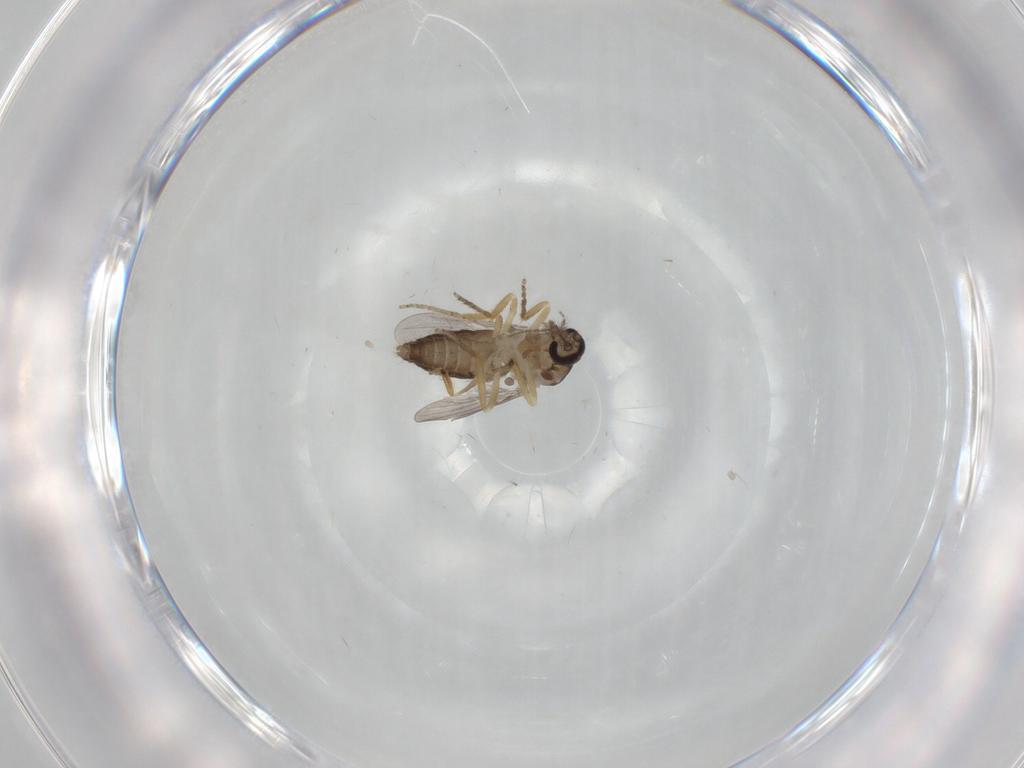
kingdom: Animalia
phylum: Arthropoda
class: Insecta
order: Diptera
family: Ceratopogonidae
